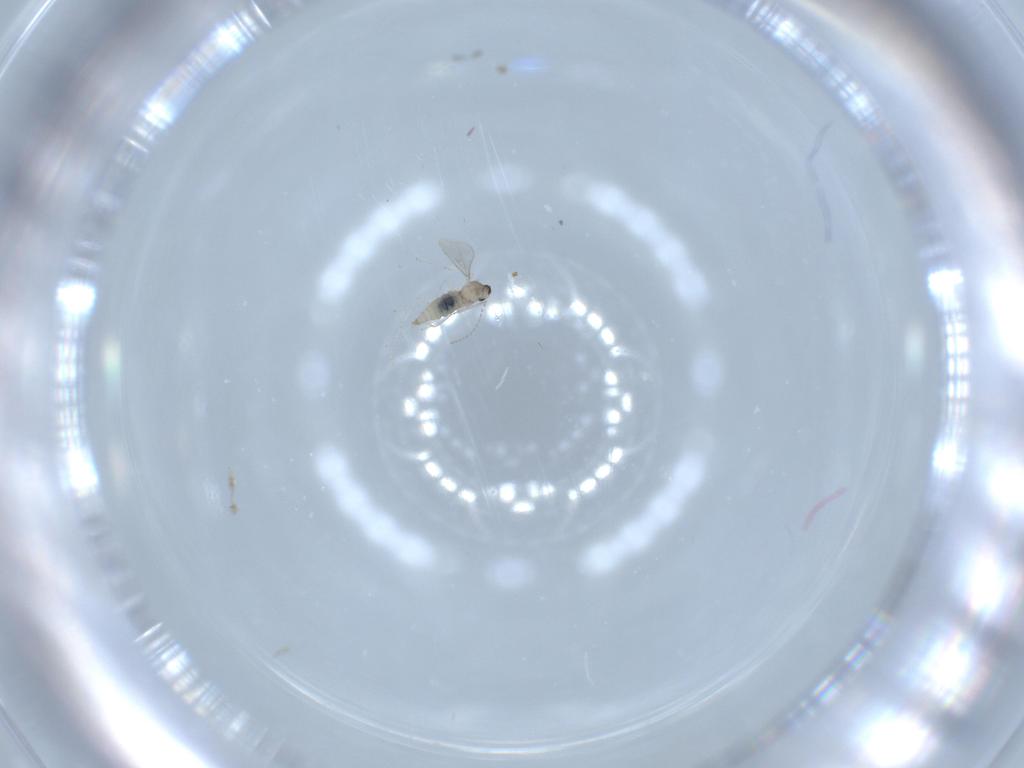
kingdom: Animalia
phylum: Arthropoda
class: Insecta
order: Diptera
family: Cecidomyiidae
